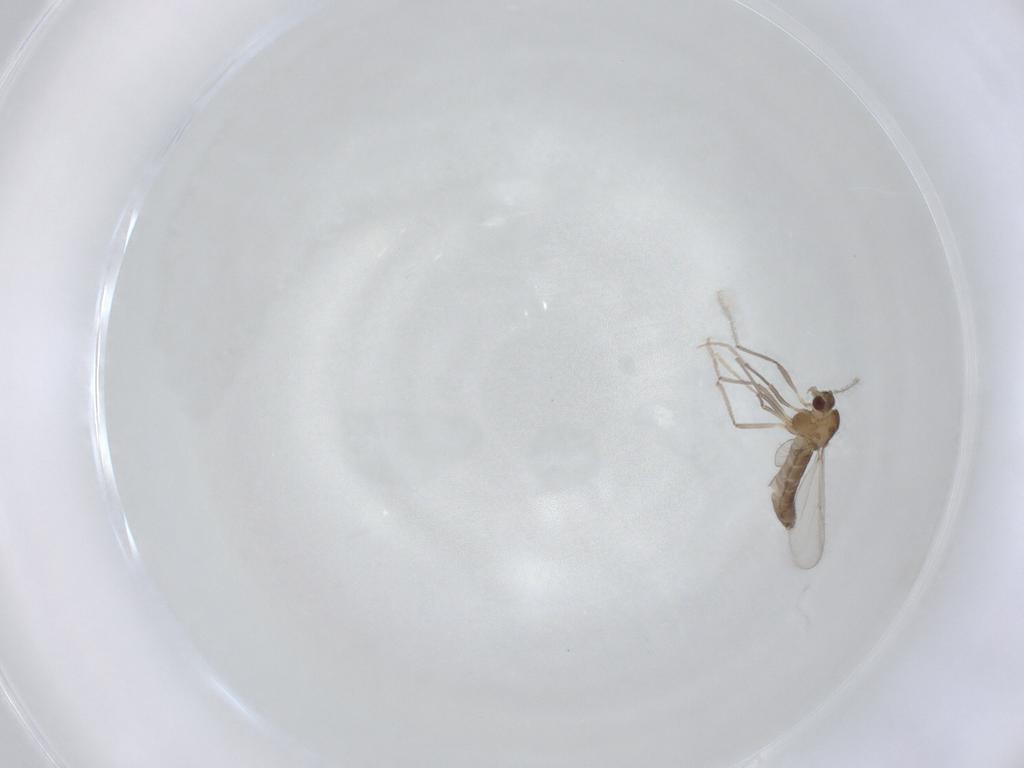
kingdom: Animalia
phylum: Arthropoda
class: Insecta
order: Diptera
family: Chironomidae
